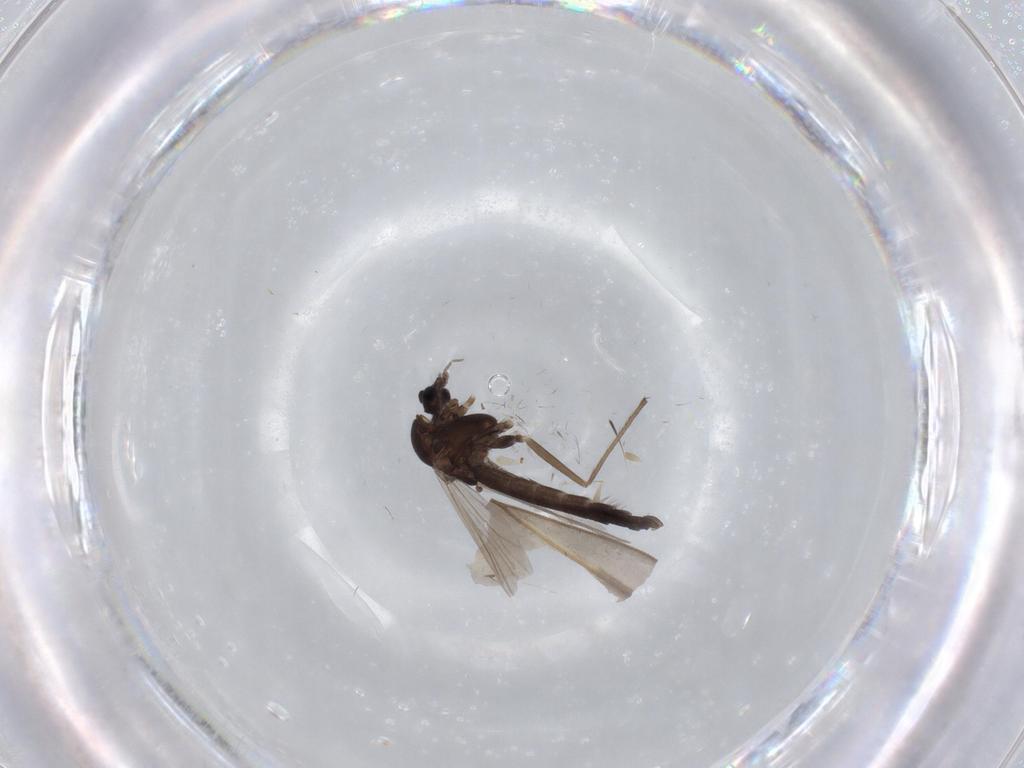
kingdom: Animalia
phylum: Arthropoda
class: Insecta
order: Diptera
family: Chironomidae
